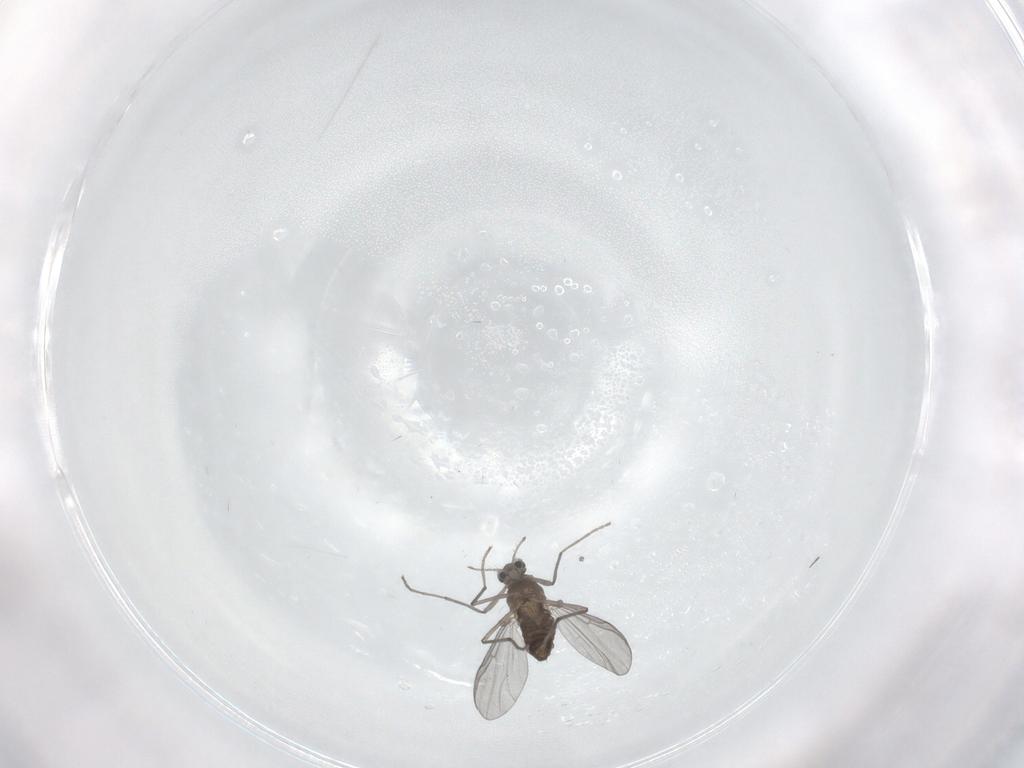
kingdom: Animalia
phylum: Arthropoda
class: Insecta
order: Diptera
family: Chironomidae
